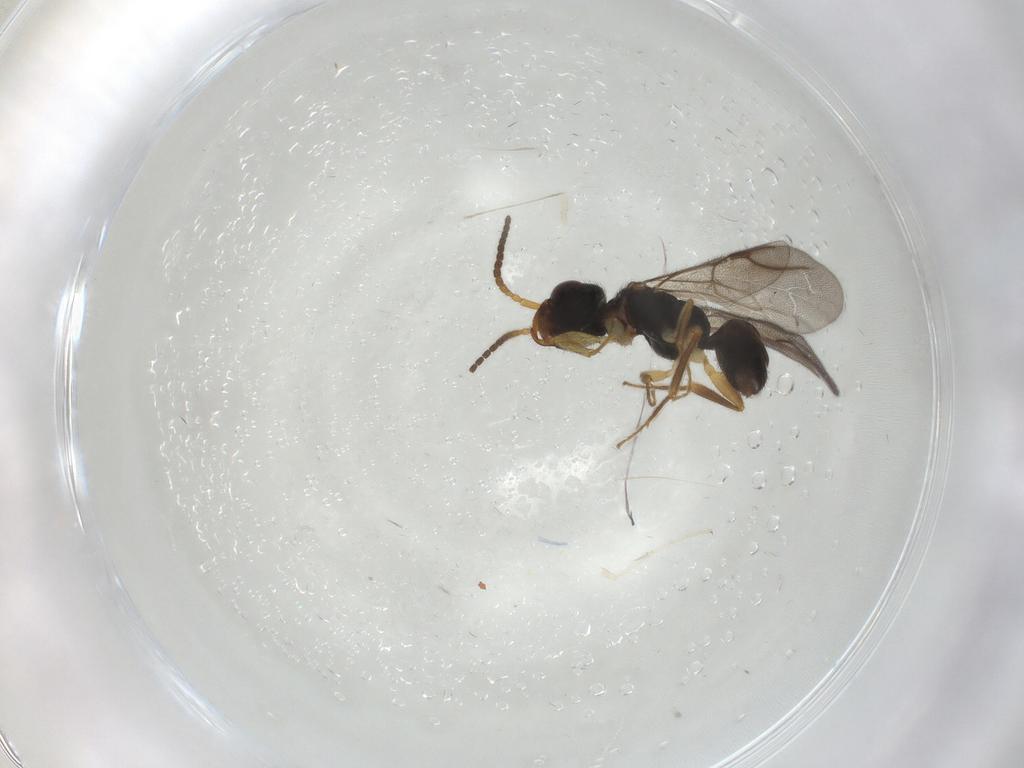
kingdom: Animalia
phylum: Arthropoda
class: Insecta
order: Hymenoptera
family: Bethylidae
